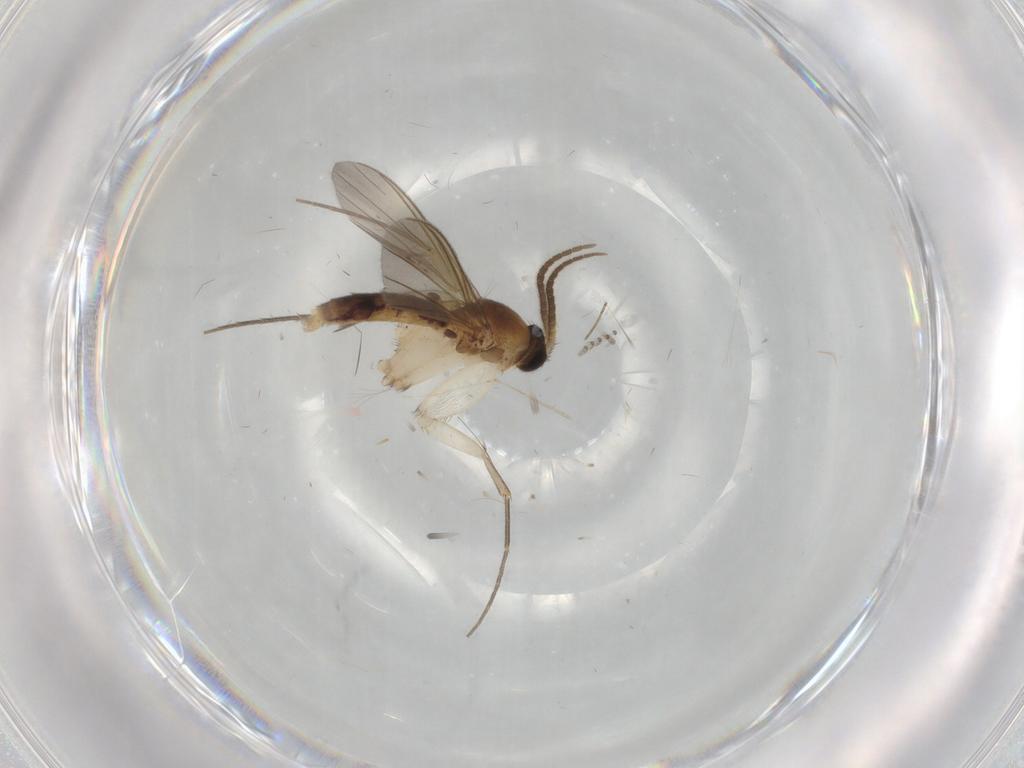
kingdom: Animalia
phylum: Arthropoda
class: Insecta
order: Diptera
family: Mycetophilidae
